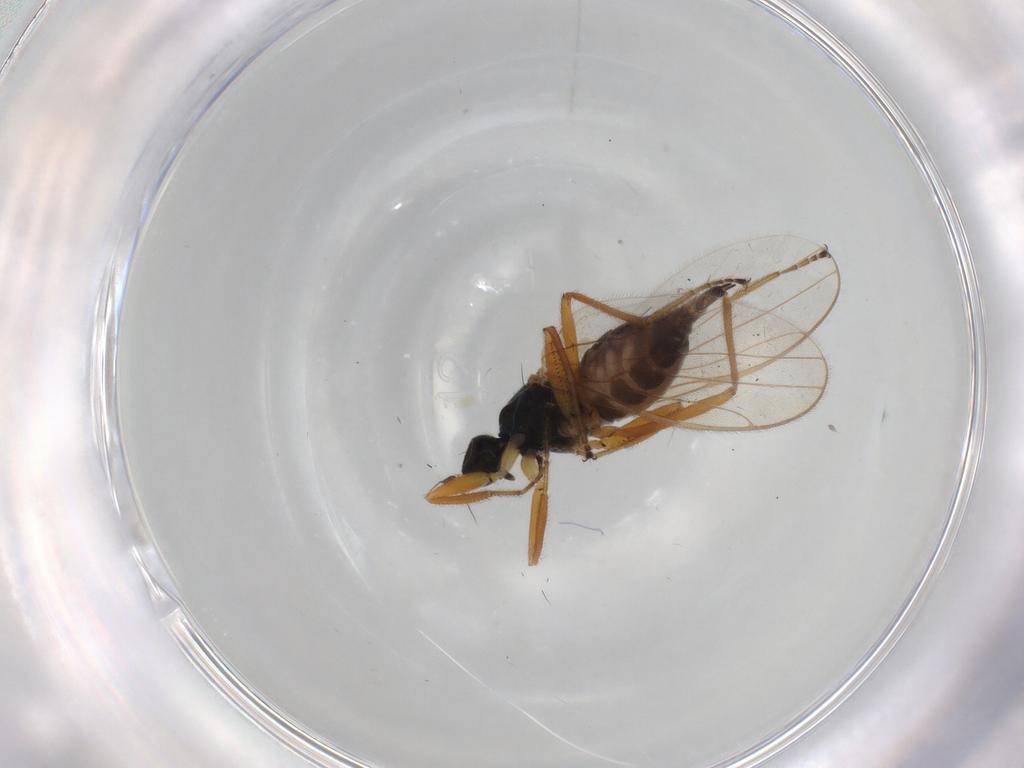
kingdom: Animalia
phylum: Arthropoda
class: Insecta
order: Diptera
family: Hybotidae
